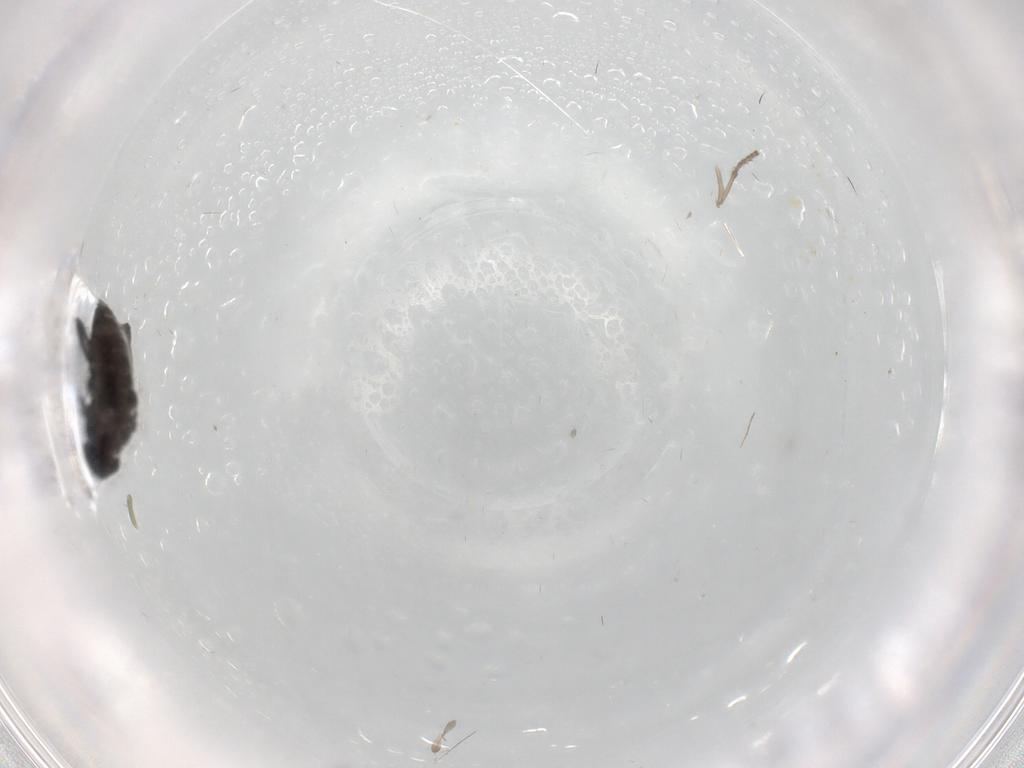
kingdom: Animalia
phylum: Arthropoda
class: Insecta
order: Diptera
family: Phoridae
